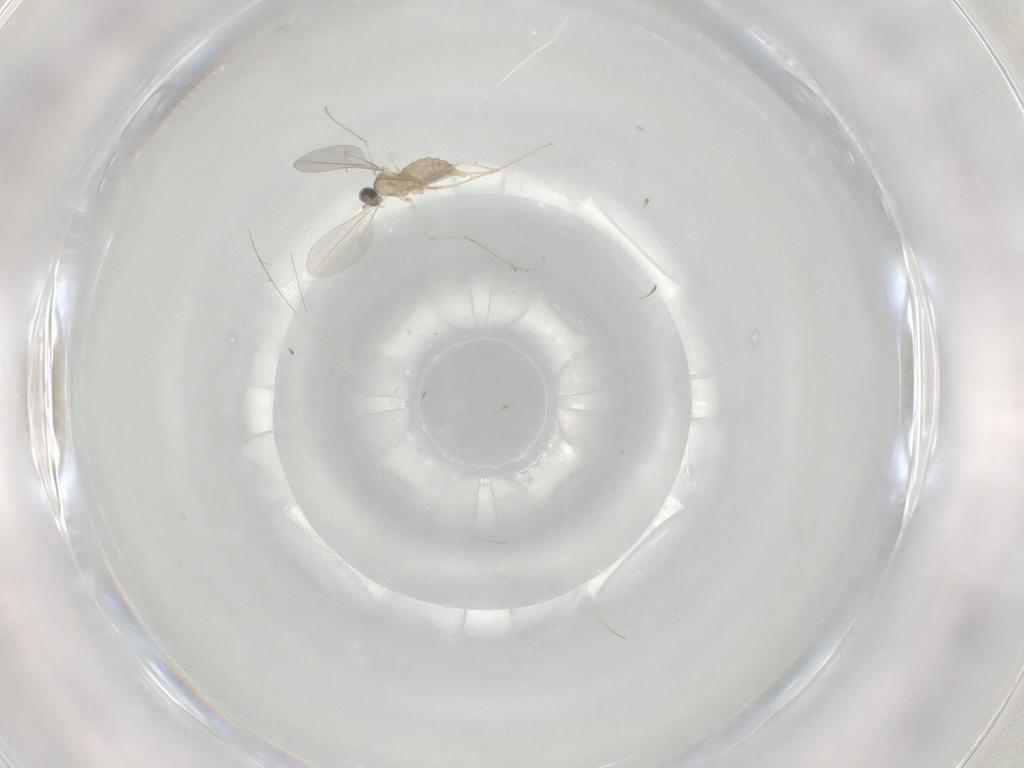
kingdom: Animalia
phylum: Arthropoda
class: Insecta
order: Diptera
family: Cecidomyiidae
